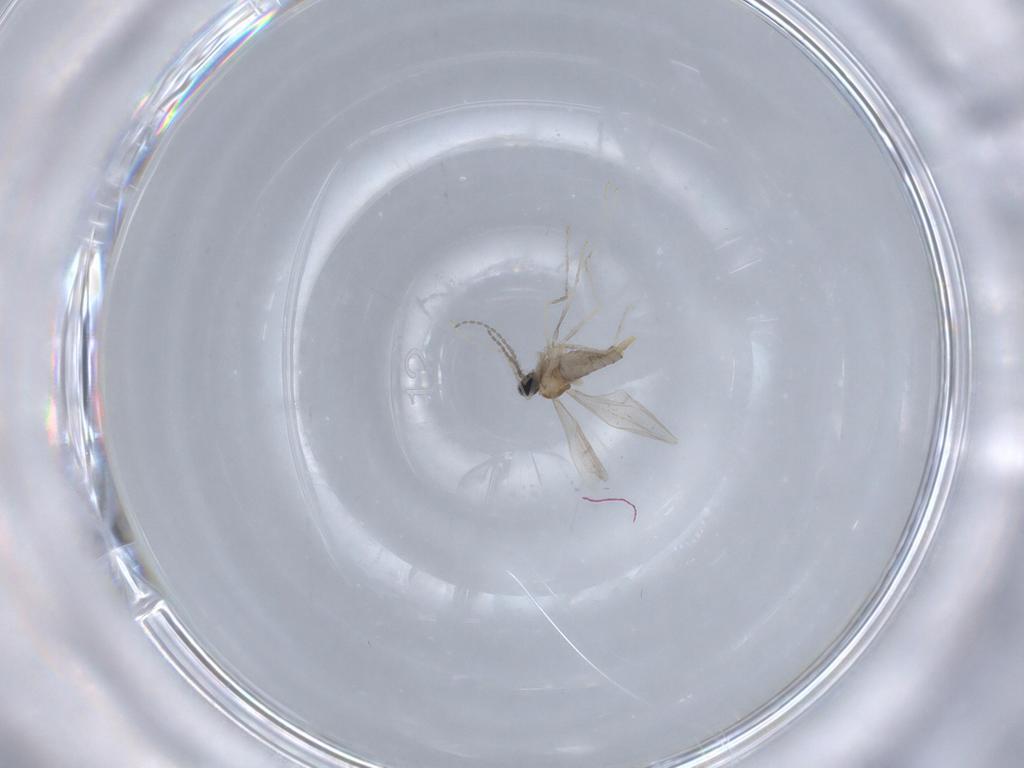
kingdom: Animalia
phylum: Arthropoda
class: Insecta
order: Diptera
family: Cecidomyiidae
